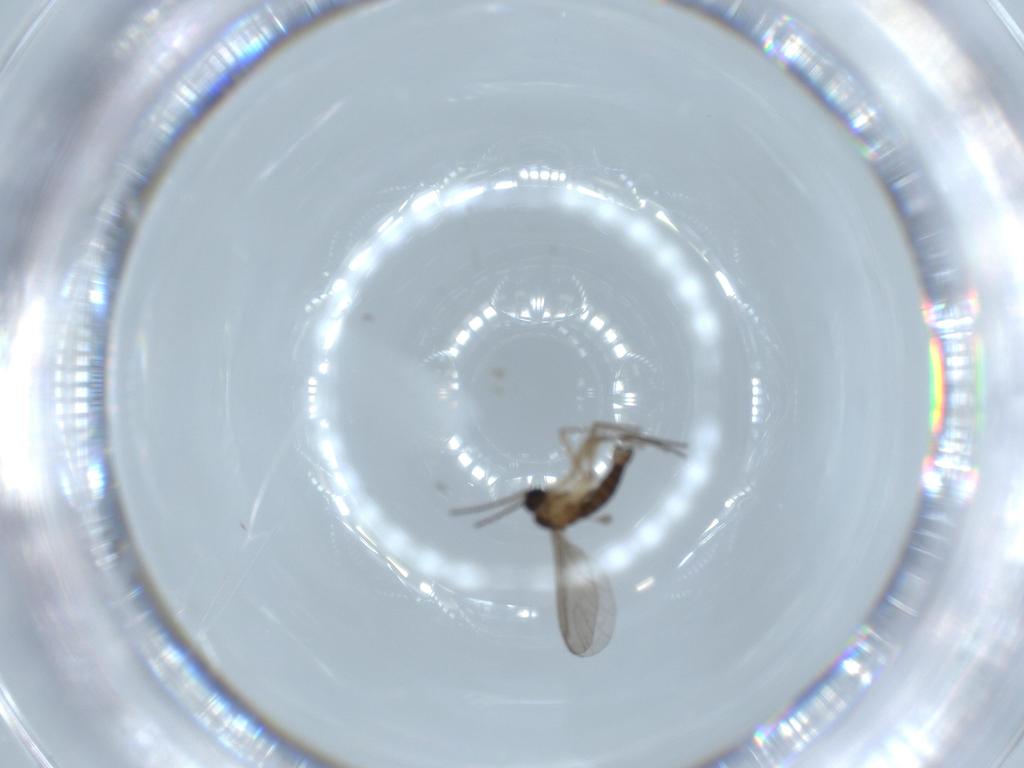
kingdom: Animalia
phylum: Arthropoda
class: Insecta
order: Diptera
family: Sciaridae
